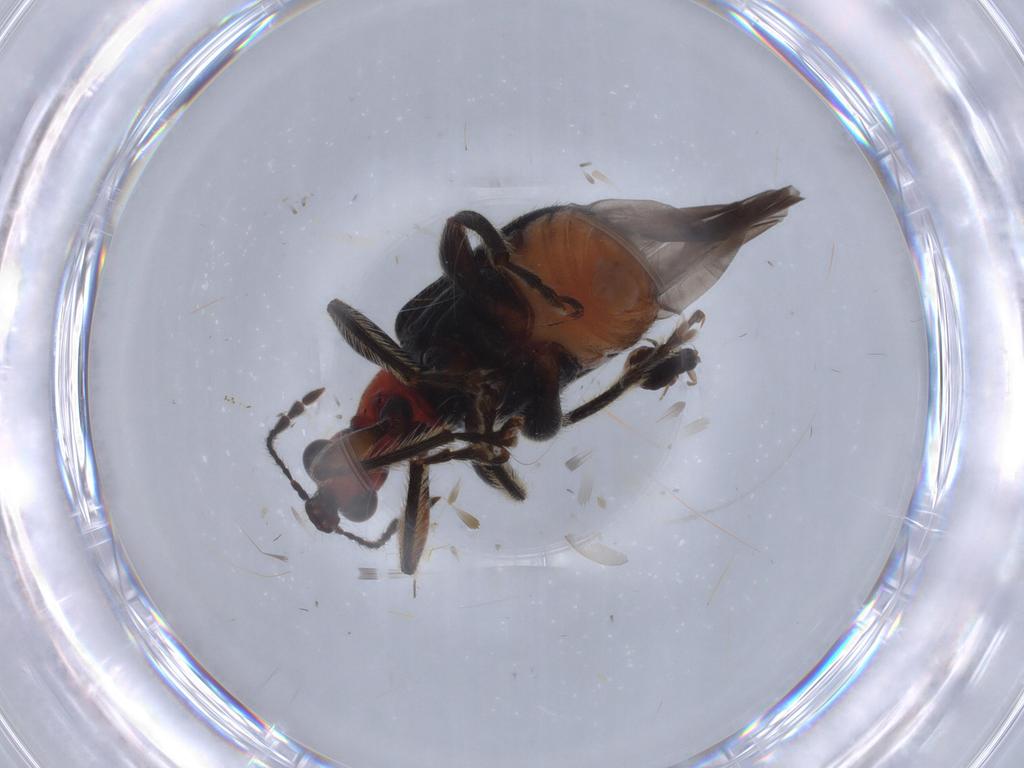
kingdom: Animalia
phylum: Arthropoda
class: Insecta
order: Coleoptera
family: Attelabidae
